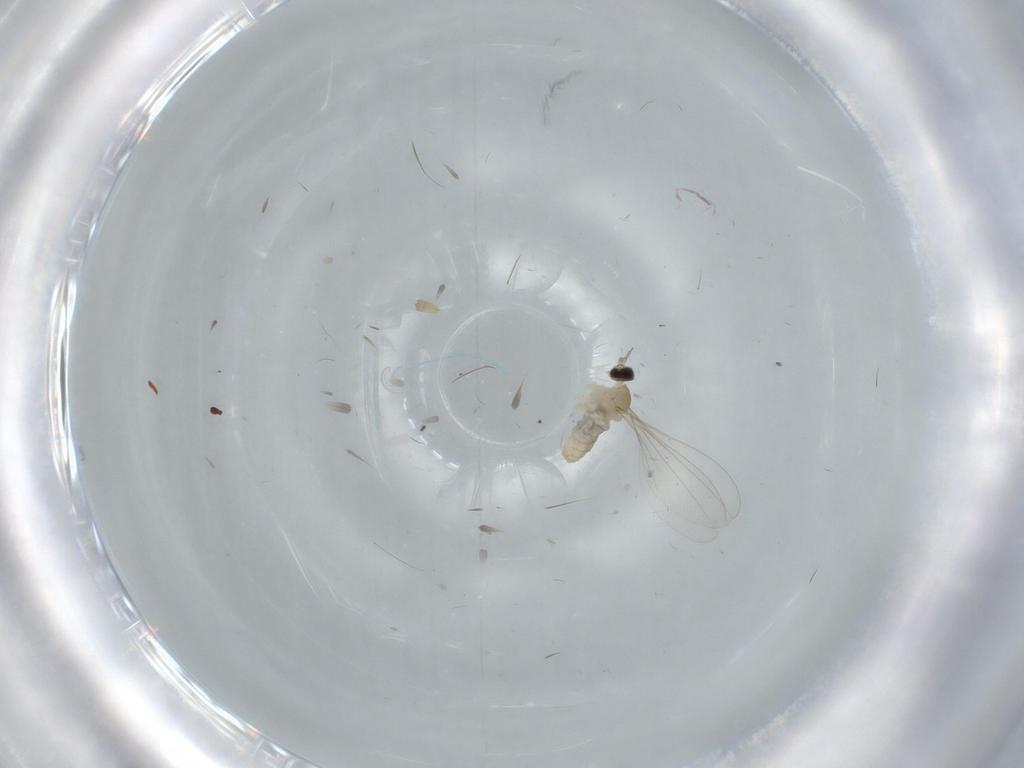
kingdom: Animalia
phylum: Arthropoda
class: Insecta
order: Diptera
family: Cecidomyiidae
